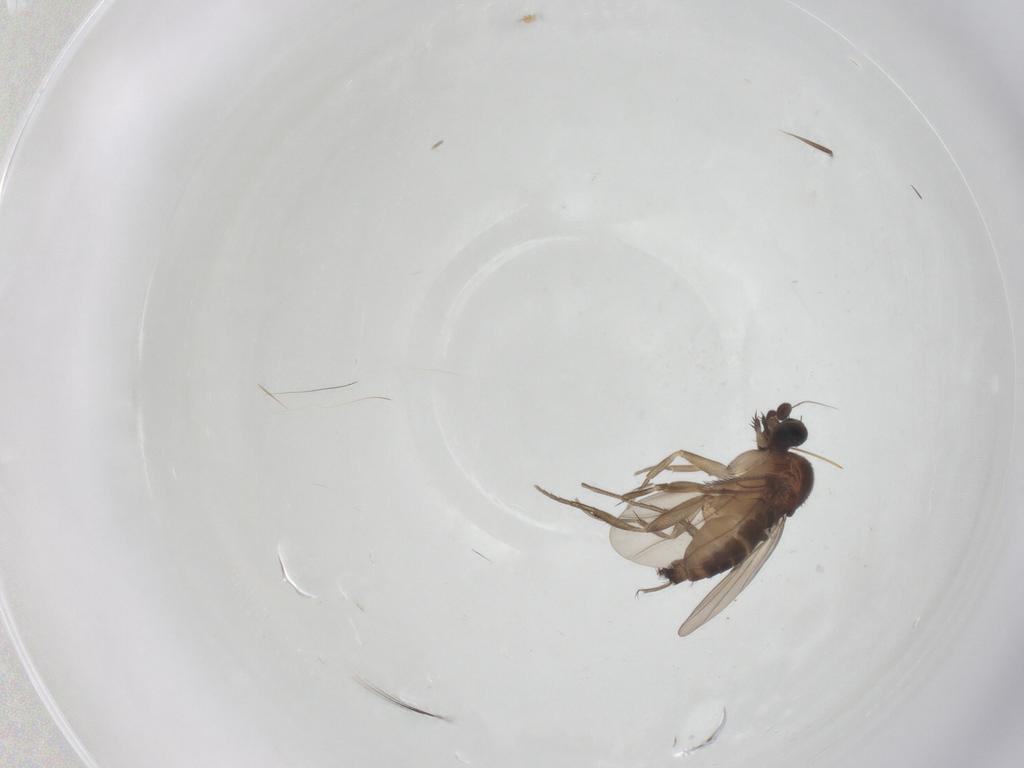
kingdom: Animalia
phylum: Arthropoda
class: Insecta
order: Diptera
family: Phoridae
